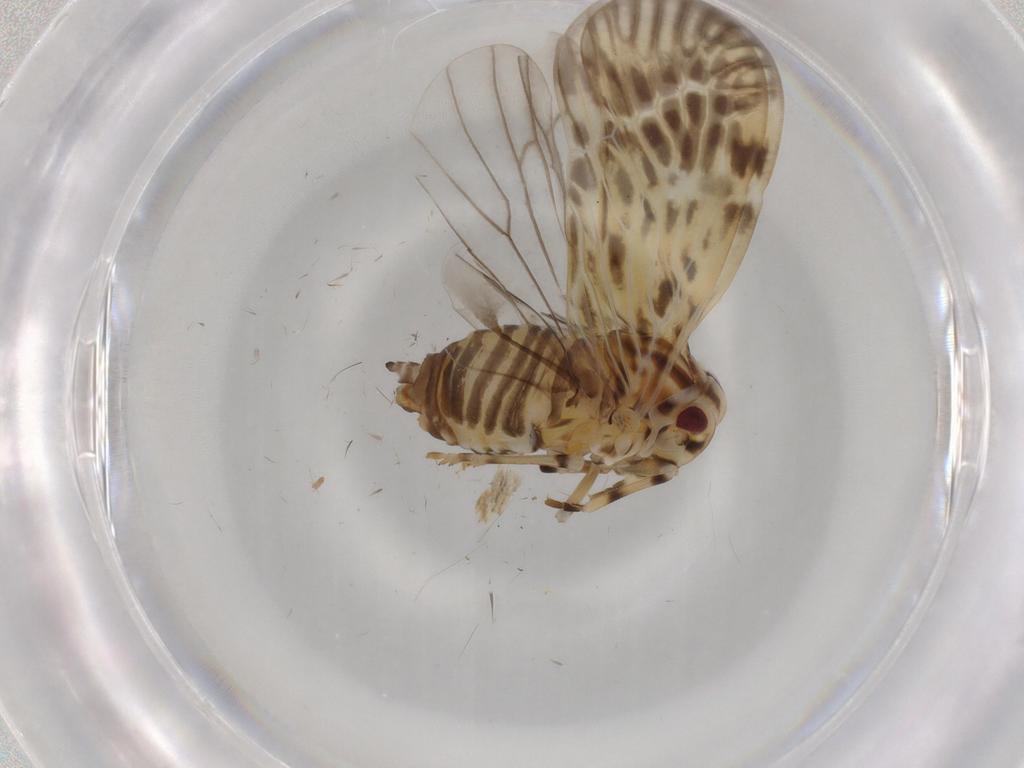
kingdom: Animalia
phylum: Arthropoda
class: Insecta
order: Hemiptera
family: Derbidae
